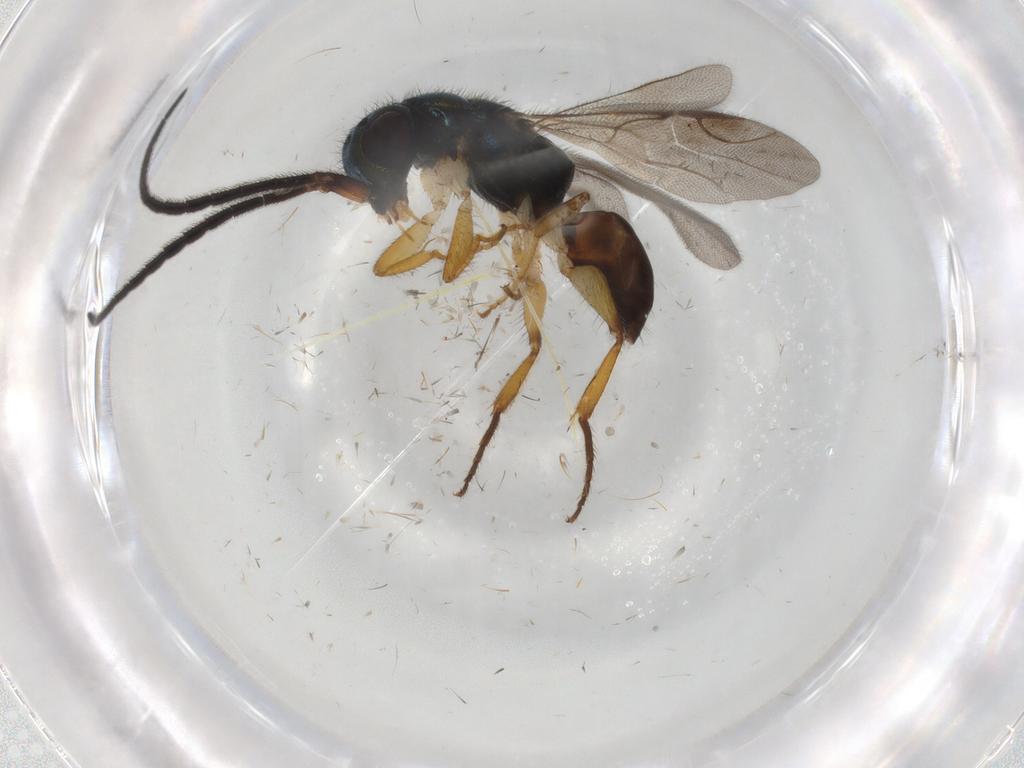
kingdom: Animalia
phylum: Arthropoda
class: Insecta
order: Hymenoptera
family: Chrysididae
